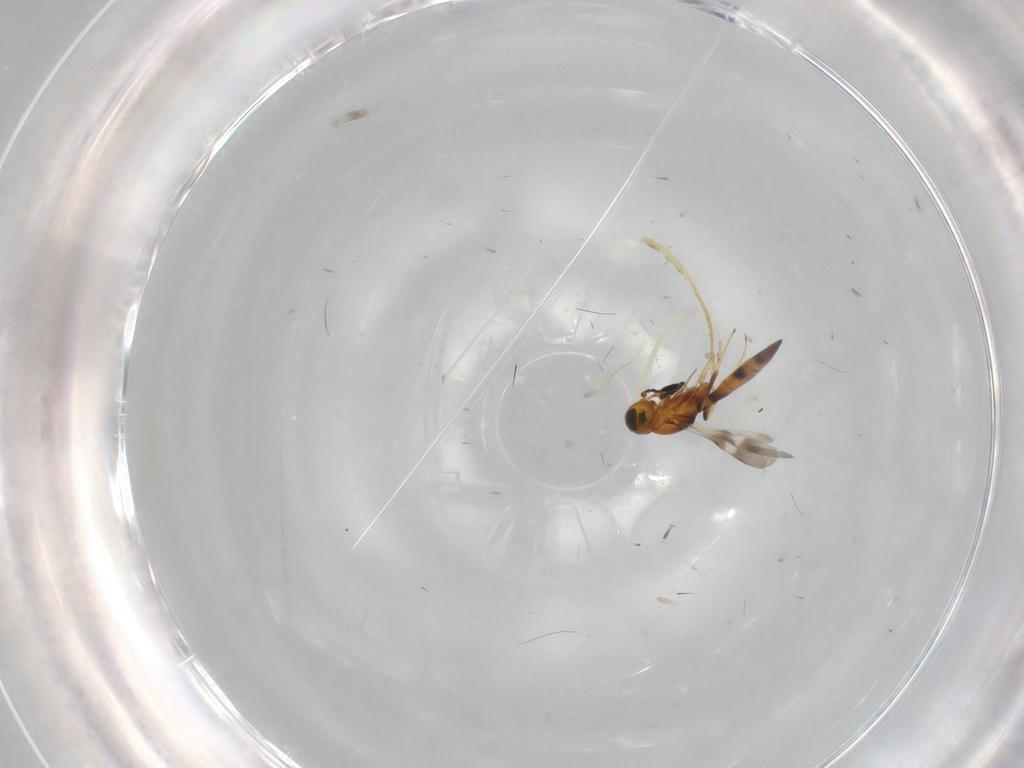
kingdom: Animalia
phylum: Arthropoda
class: Insecta
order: Hymenoptera
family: Scelionidae
